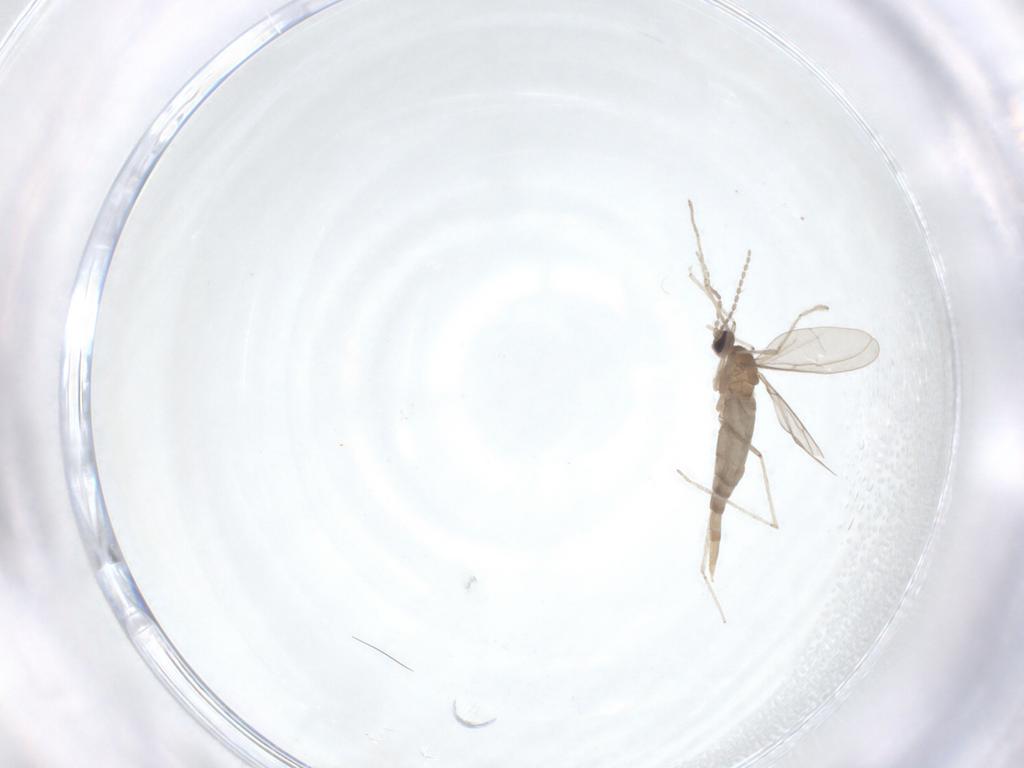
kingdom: Animalia
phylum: Arthropoda
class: Insecta
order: Diptera
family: Cecidomyiidae
